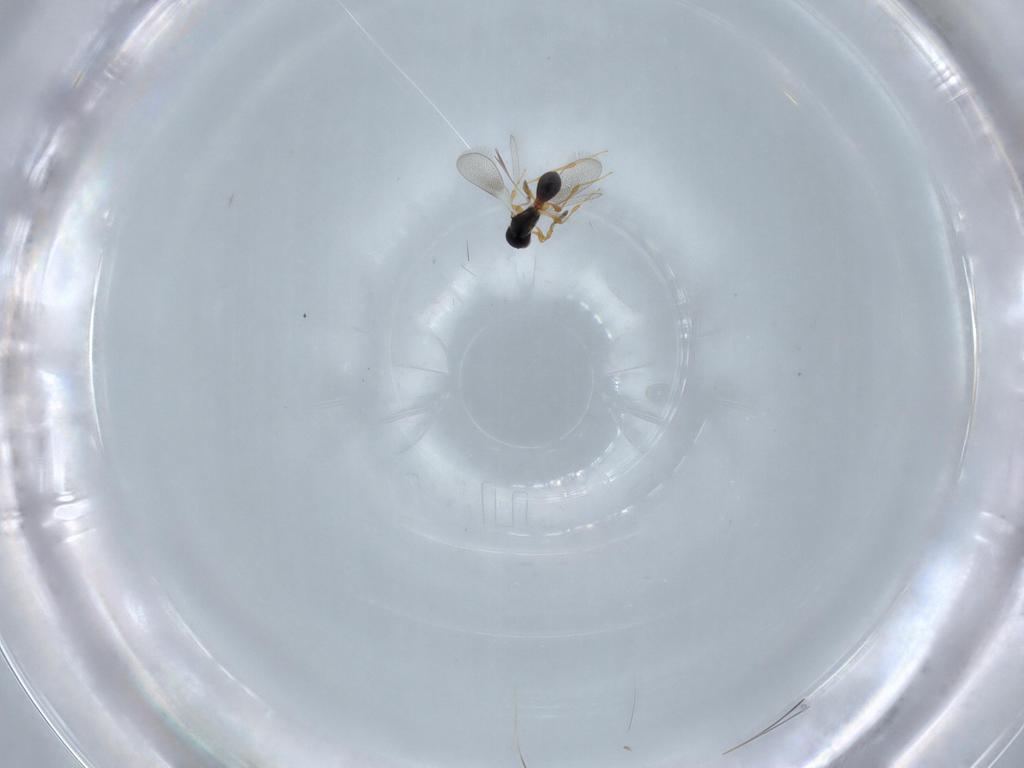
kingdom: Animalia
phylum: Arthropoda
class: Insecta
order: Hymenoptera
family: Platygastridae
